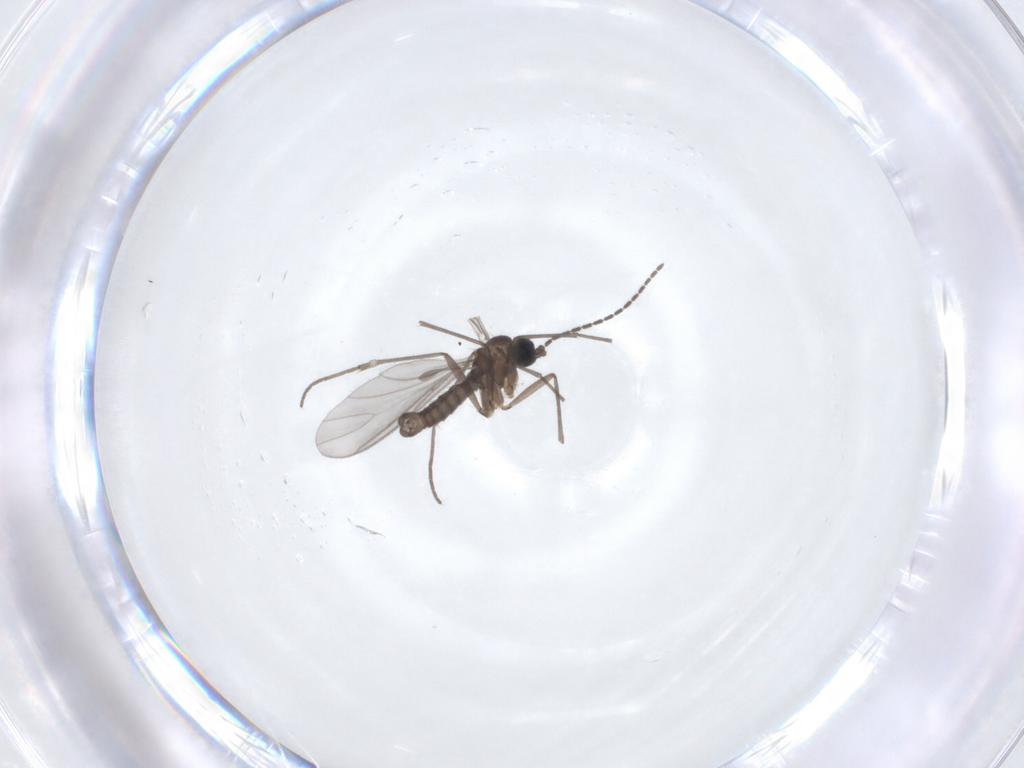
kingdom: Animalia
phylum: Arthropoda
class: Insecta
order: Diptera
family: Sciaridae
